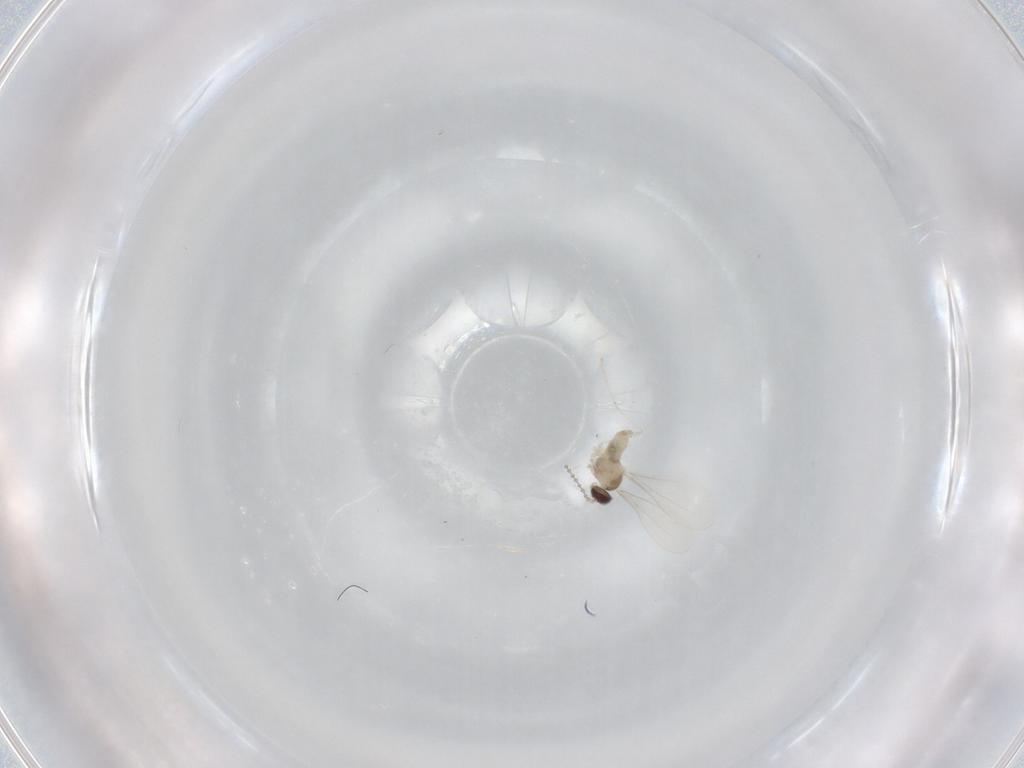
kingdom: Animalia
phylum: Arthropoda
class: Insecta
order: Diptera
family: Cecidomyiidae
